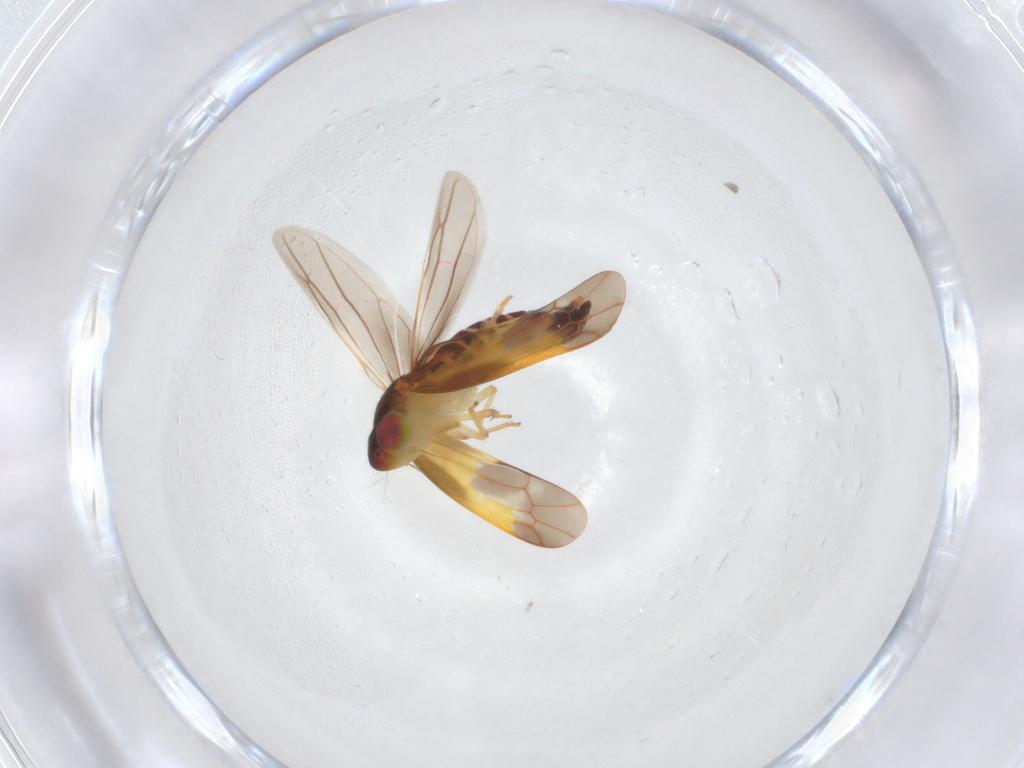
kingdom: Animalia
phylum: Arthropoda
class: Insecta
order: Hemiptera
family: Cicadellidae
